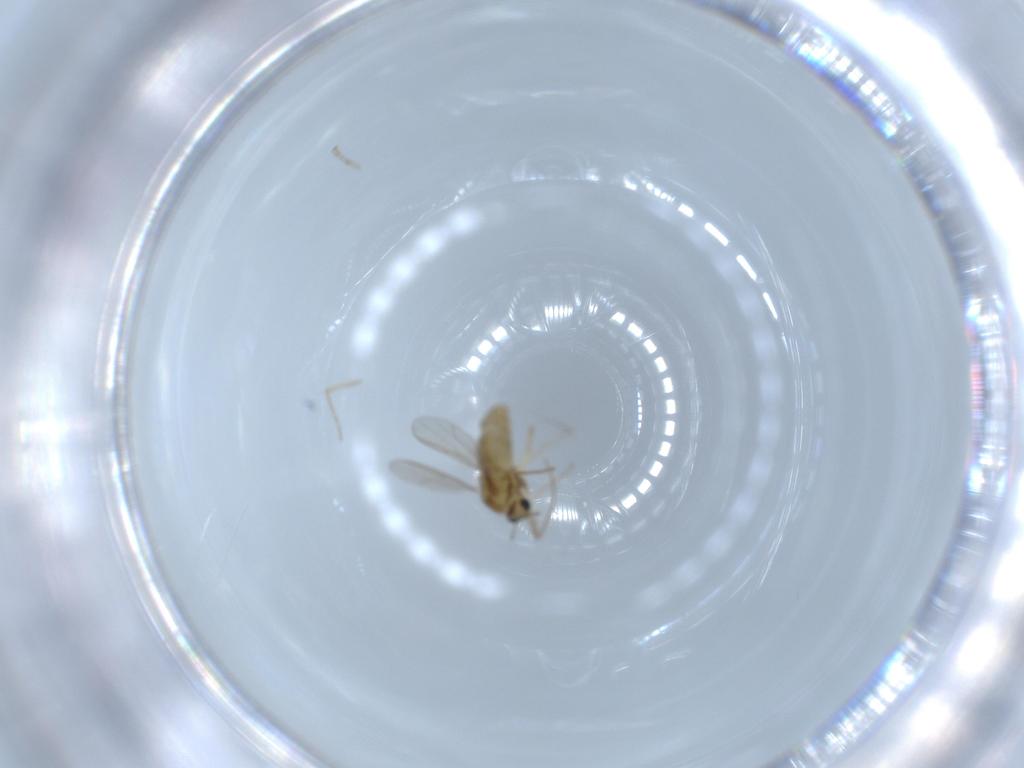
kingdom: Animalia
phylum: Arthropoda
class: Insecta
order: Diptera
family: Chironomidae
